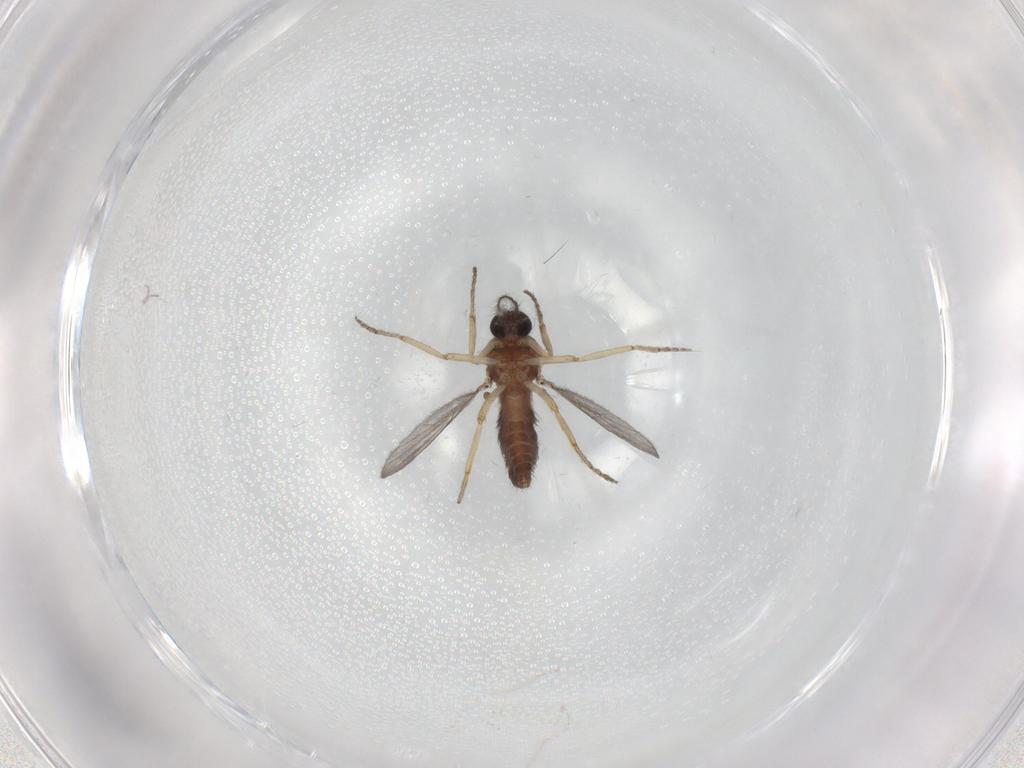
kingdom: Animalia
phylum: Arthropoda
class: Insecta
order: Diptera
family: Ceratopogonidae
